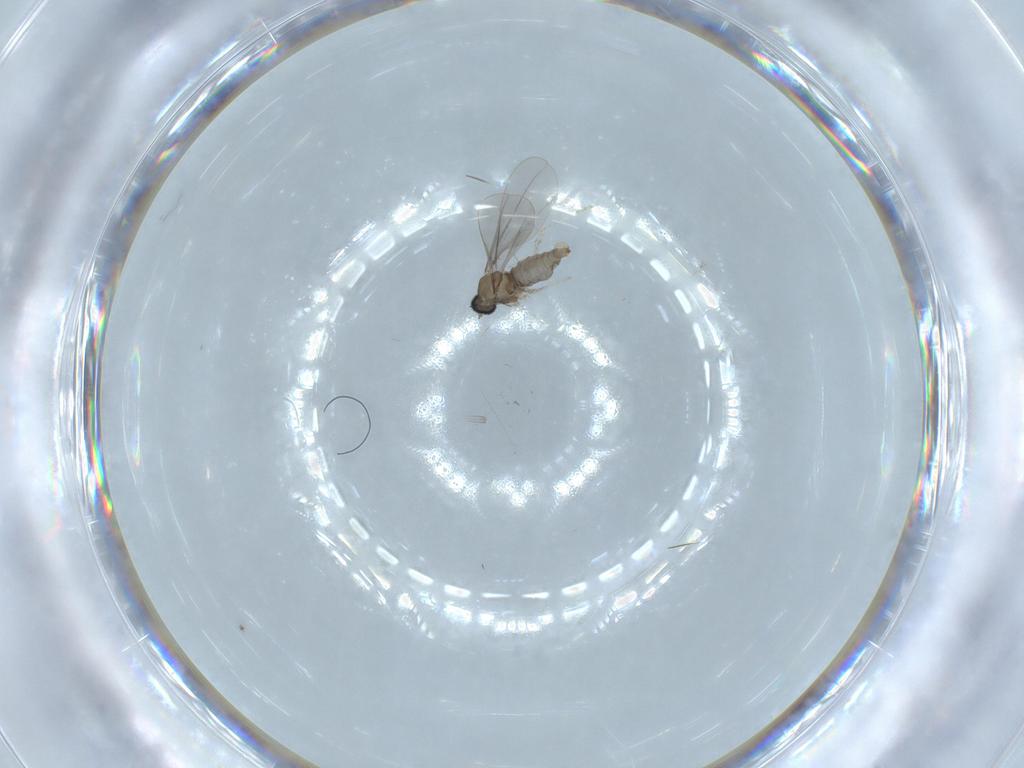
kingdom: Animalia
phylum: Arthropoda
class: Insecta
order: Diptera
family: Cecidomyiidae
